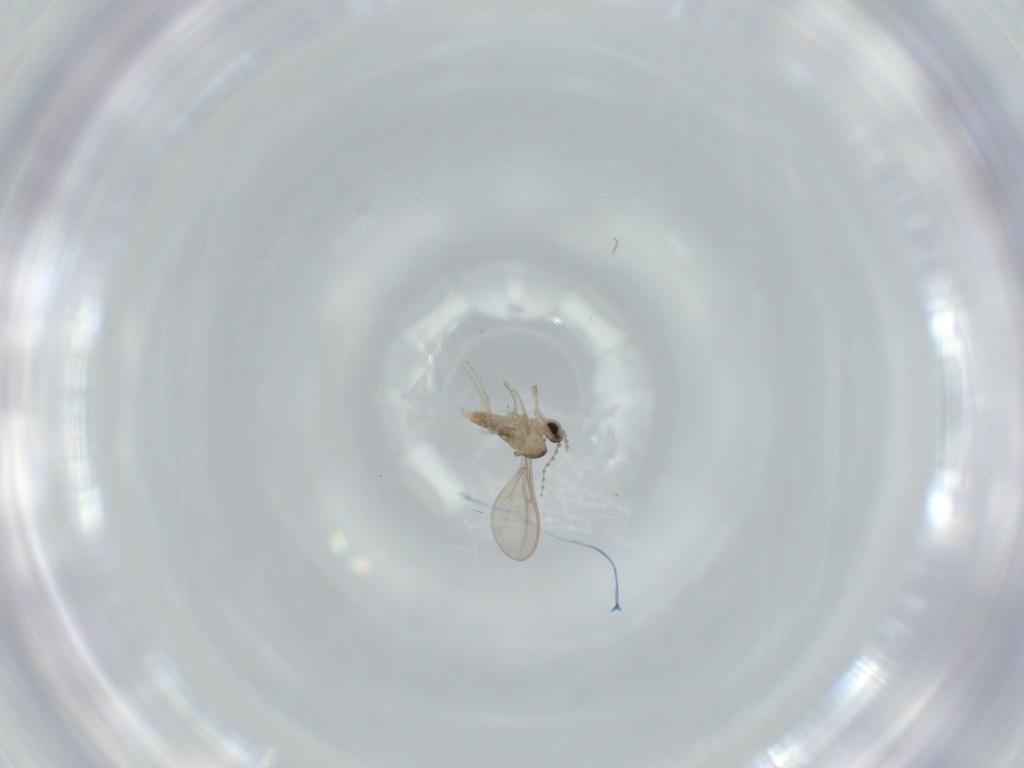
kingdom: Animalia
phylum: Arthropoda
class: Insecta
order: Diptera
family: Cecidomyiidae
